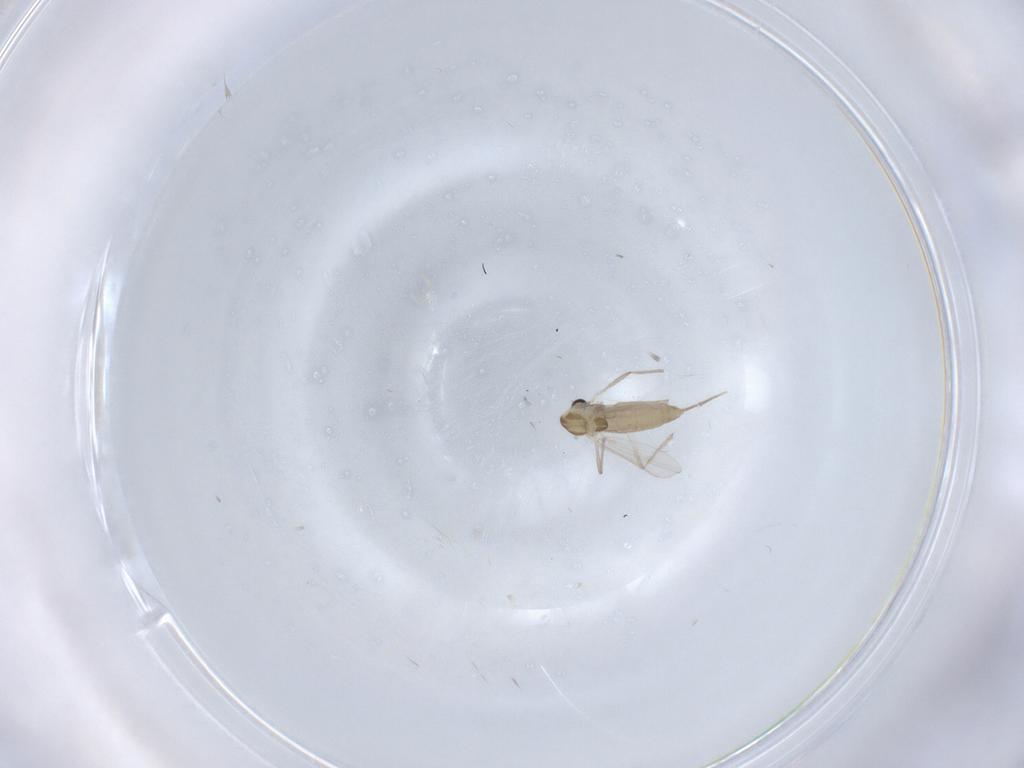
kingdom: Animalia
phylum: Arthropoda
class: Insecta
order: Diptera
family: Chironomidae
